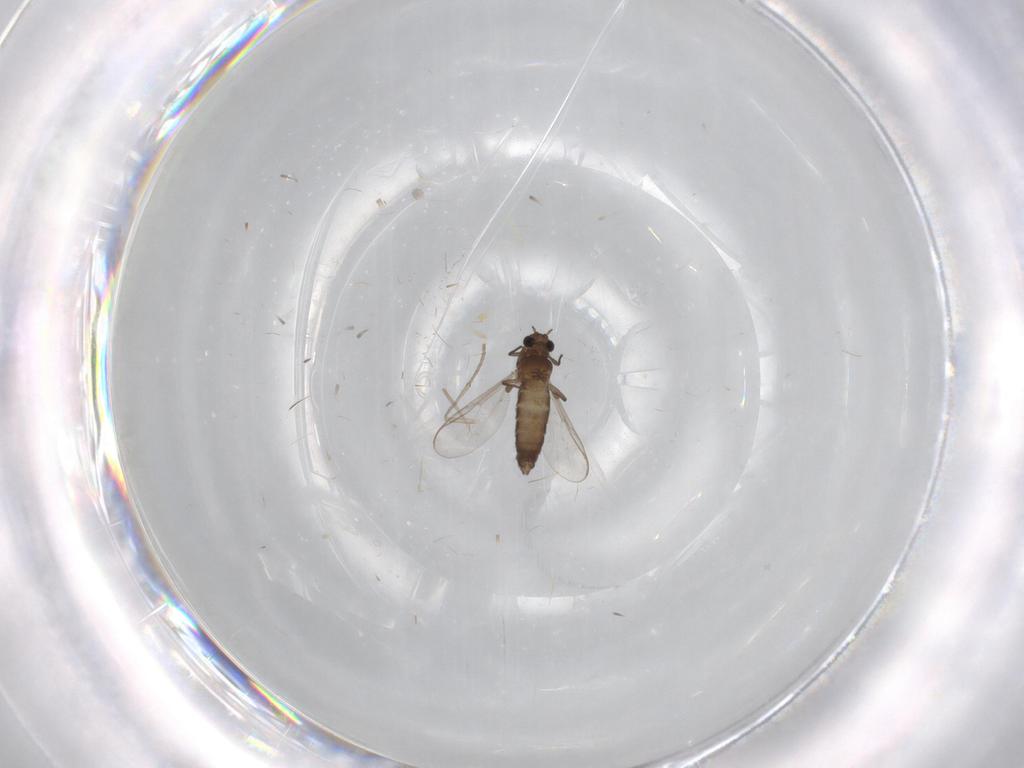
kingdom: Animalia
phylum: Arthropoda
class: Insecta
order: Diptera
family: Chironomidae
